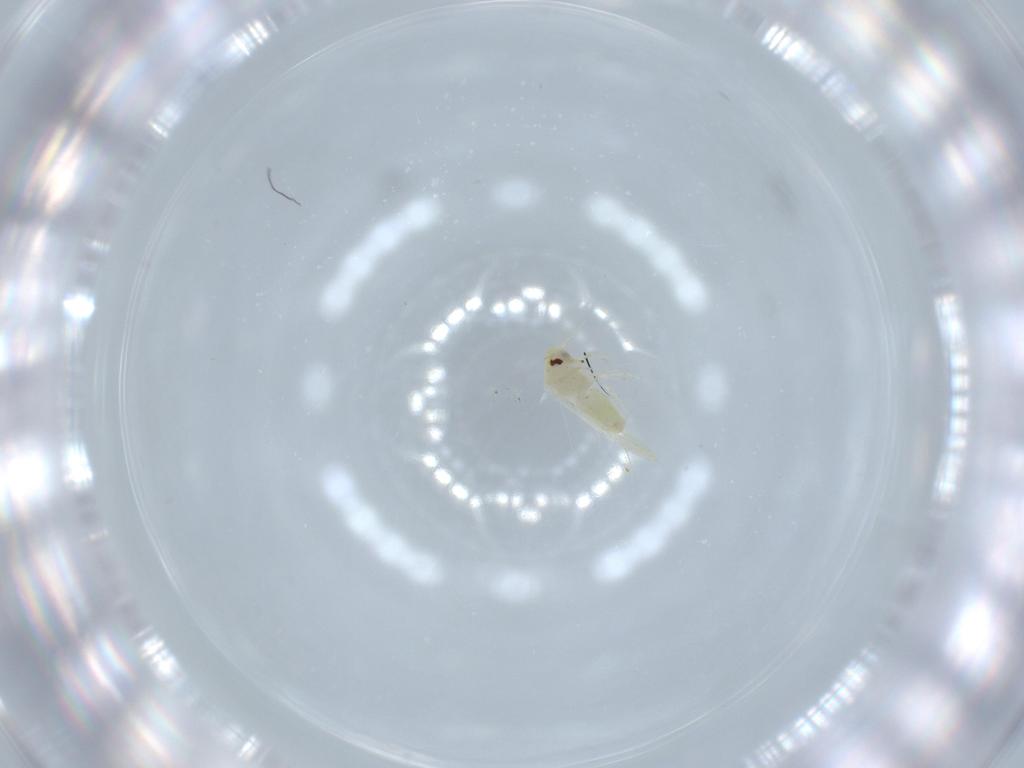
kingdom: Animalia
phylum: Arthropoda
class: Insecta
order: Hemiptera
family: Aleyrodidae
